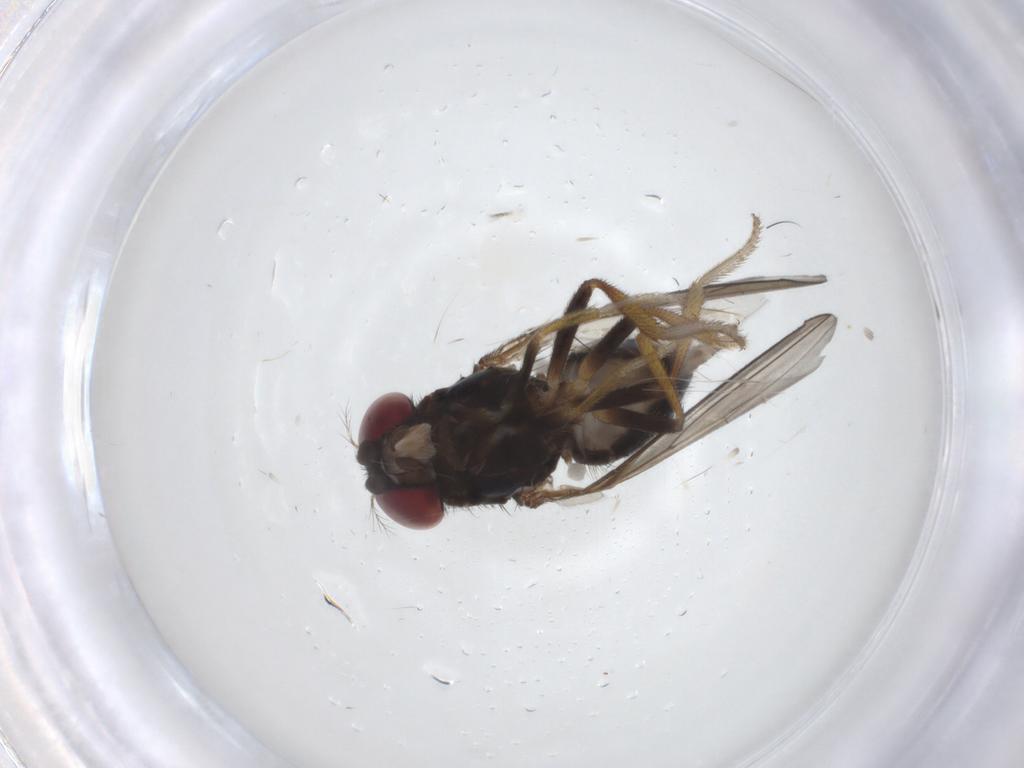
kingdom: Animalia
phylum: Arthropoda
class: Insecta
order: Diptera
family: Drosophilidae
